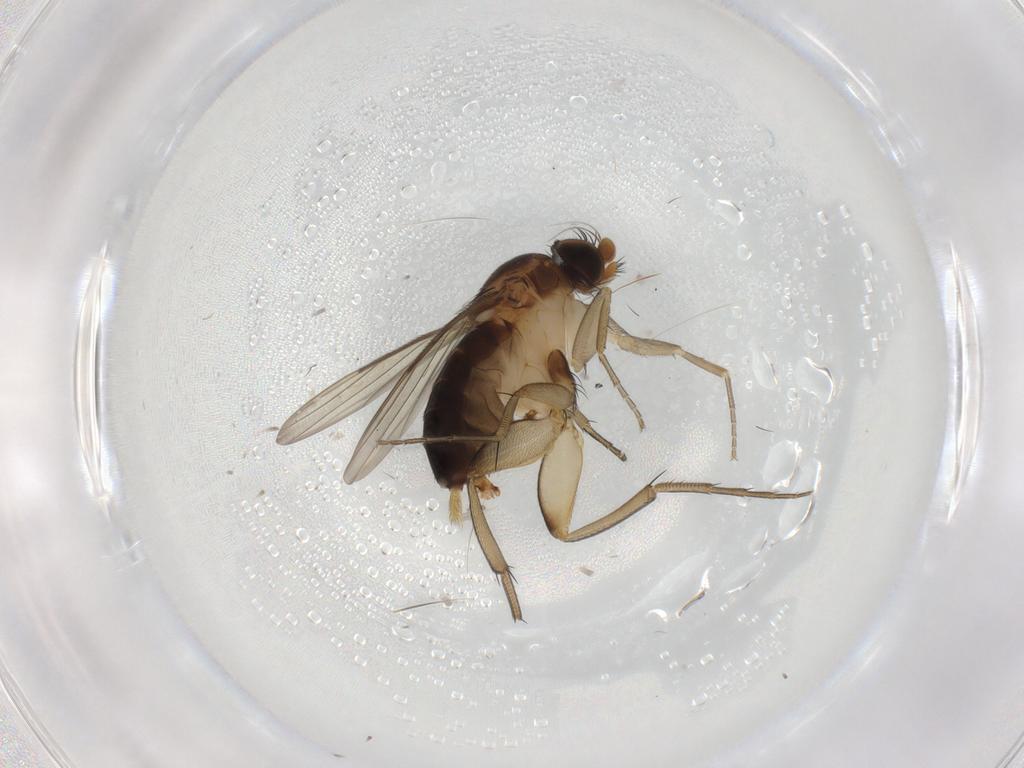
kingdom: Animalia
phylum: Arthropoda
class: Insecta
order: Diptera
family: Phoridae
